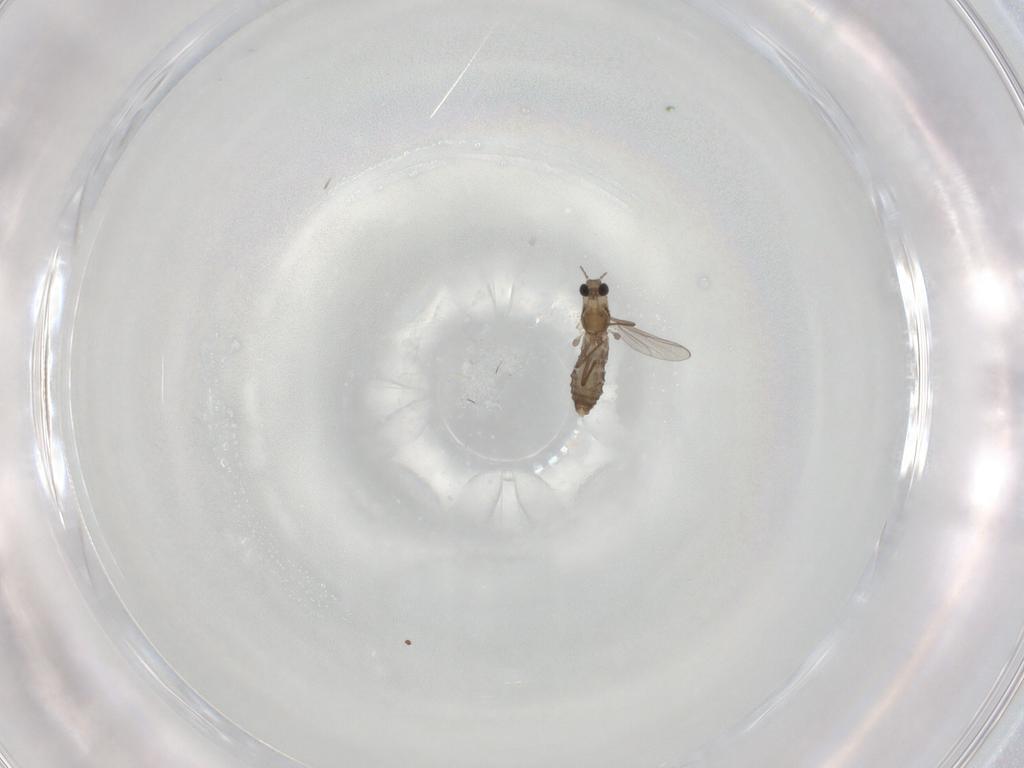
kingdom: Animalia
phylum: Arthropoda
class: Insecta
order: Diptera
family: Chironomidae
